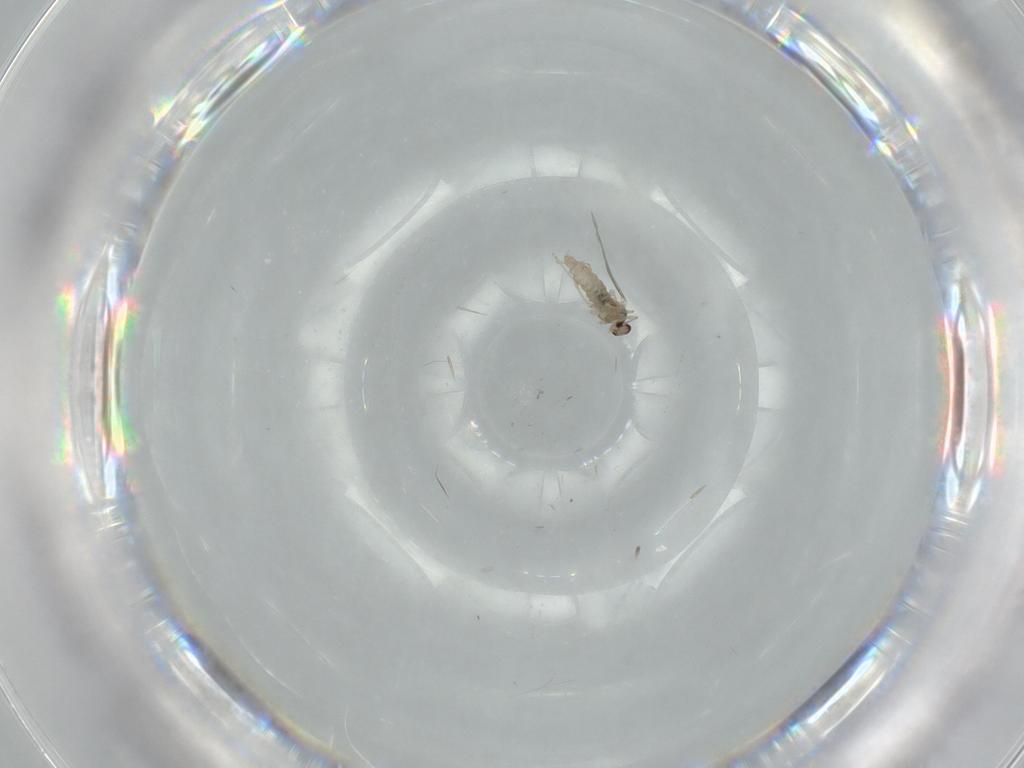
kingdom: Animalia
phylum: Arthropoda
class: Insecta
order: Diptera
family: Cecidomyiidae
